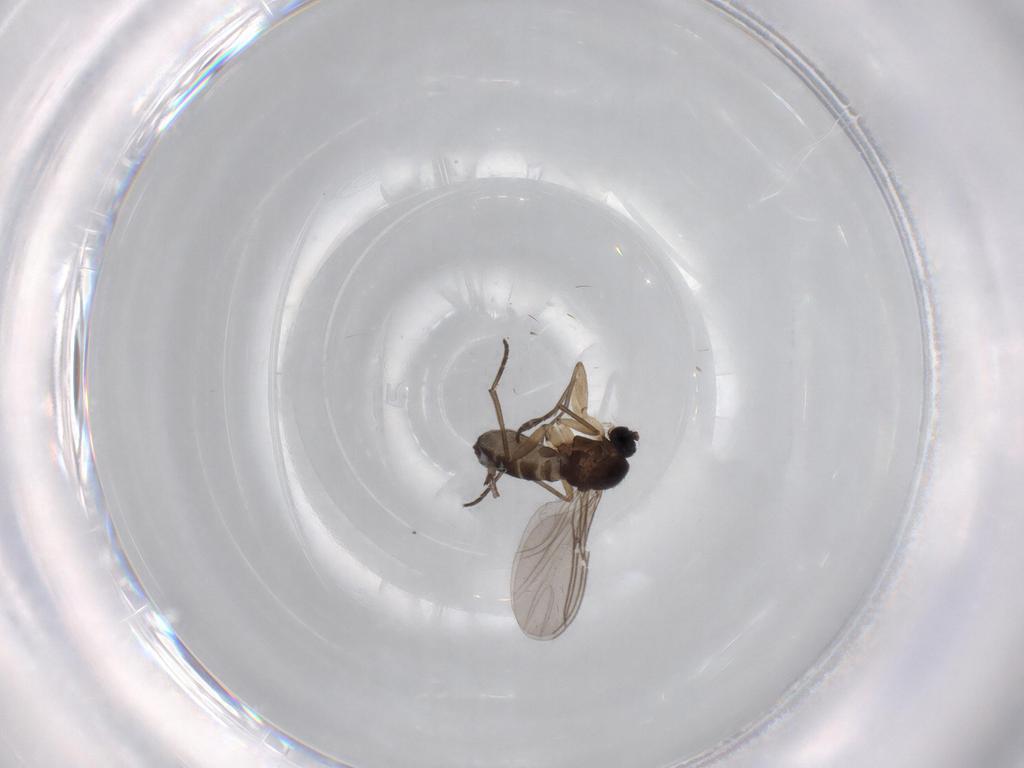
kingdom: Animalia
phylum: Arthropoda
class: Insecta
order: Diptera
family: Sciaridae
